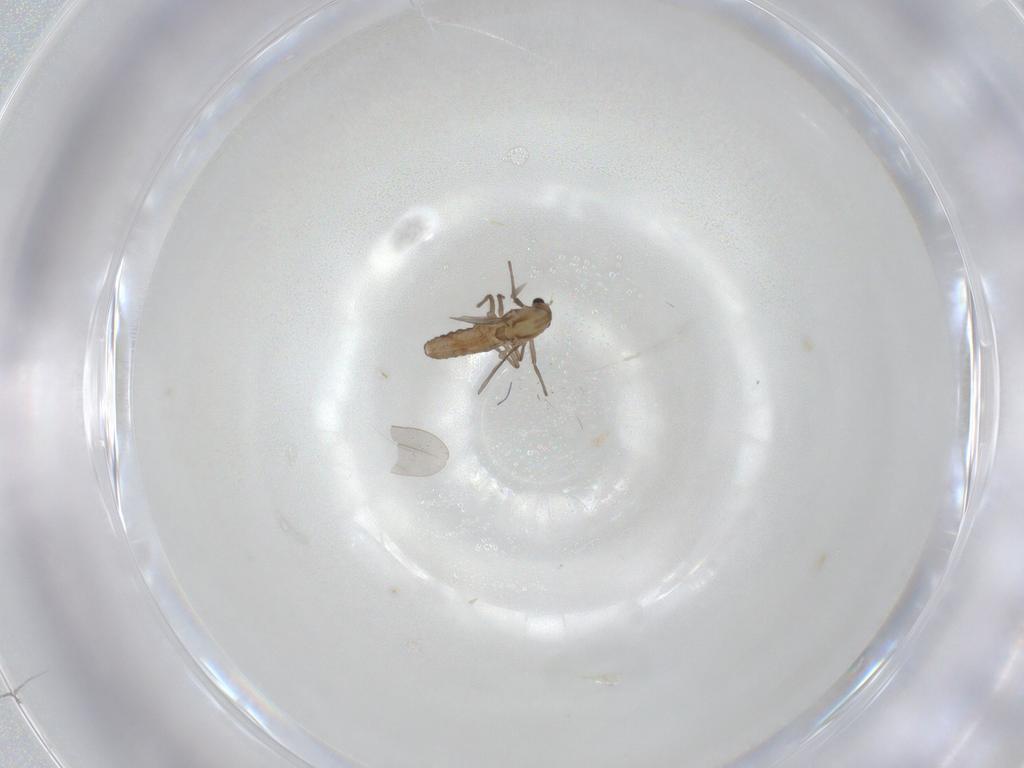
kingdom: Animalia
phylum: Arthropoda
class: Insecta
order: Diptera
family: Chironomidae
